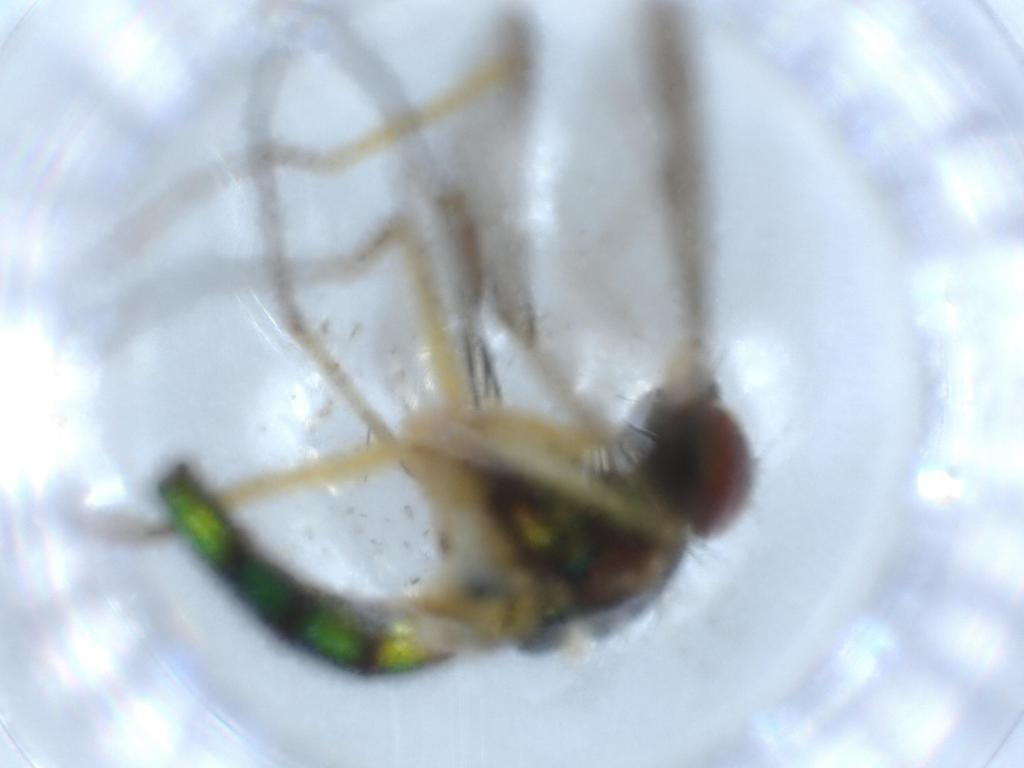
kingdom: Animalia
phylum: Arthropoda
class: Insecta
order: Diptera
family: Dolichopodidae
